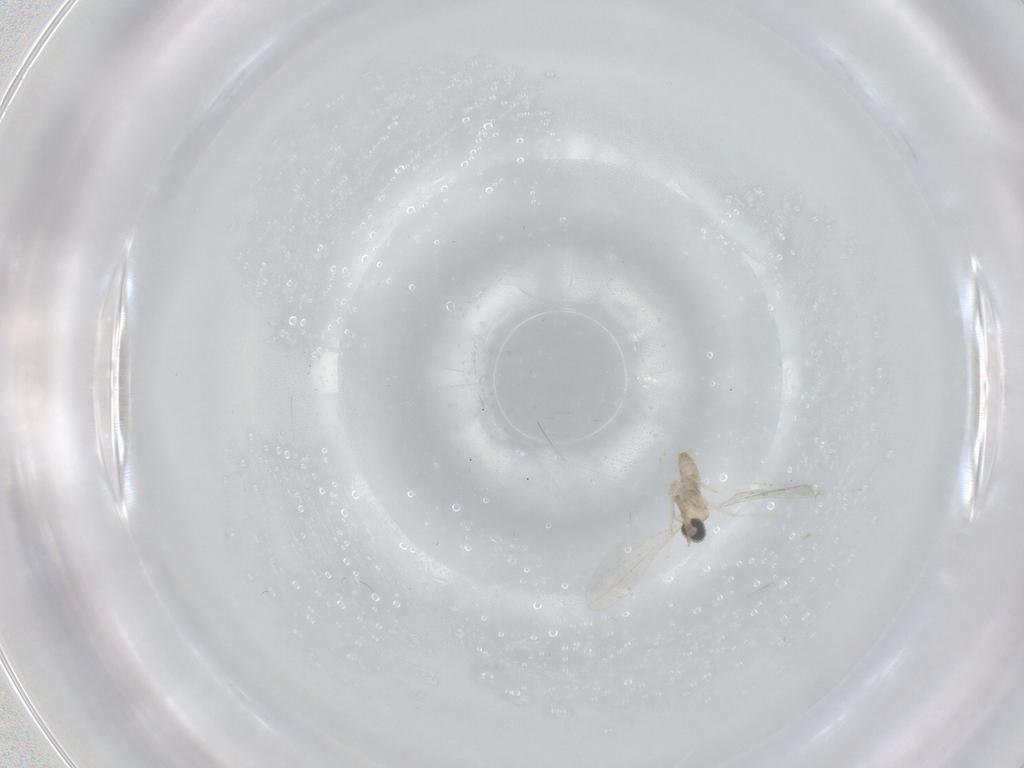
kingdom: Animalia
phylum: Arthropoda
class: Insecta
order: Diptera
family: Cecidomyiidae
